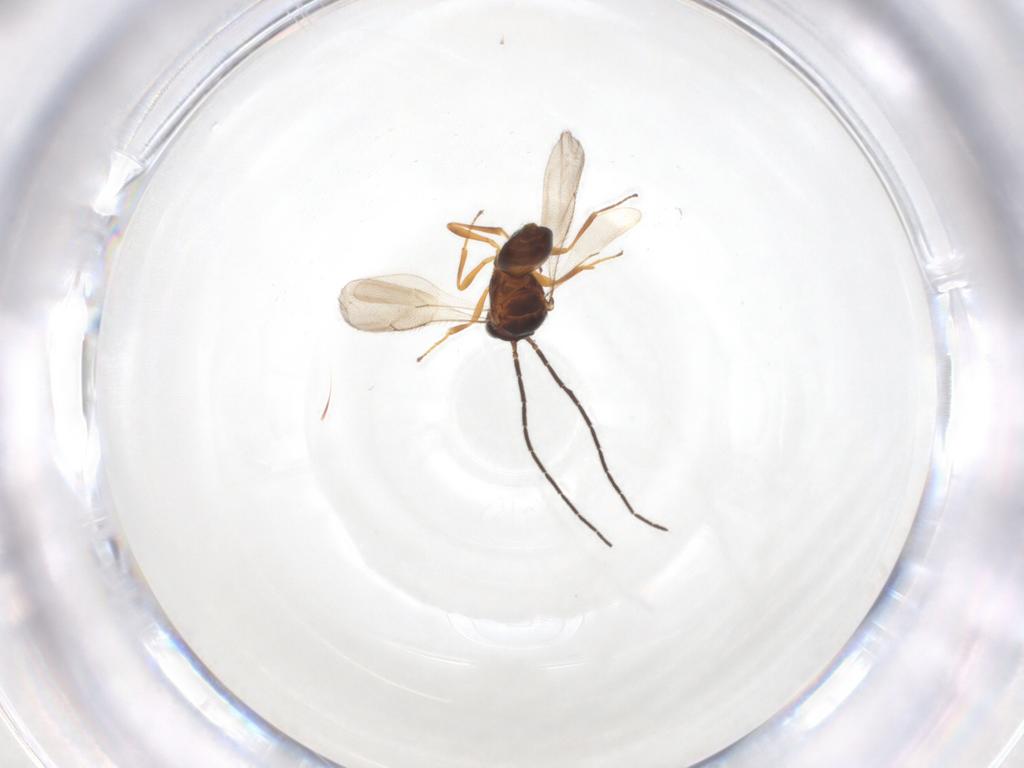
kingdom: Animalia
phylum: Arthropoda
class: Insecta
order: Hymenoptera
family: Scelionidae
